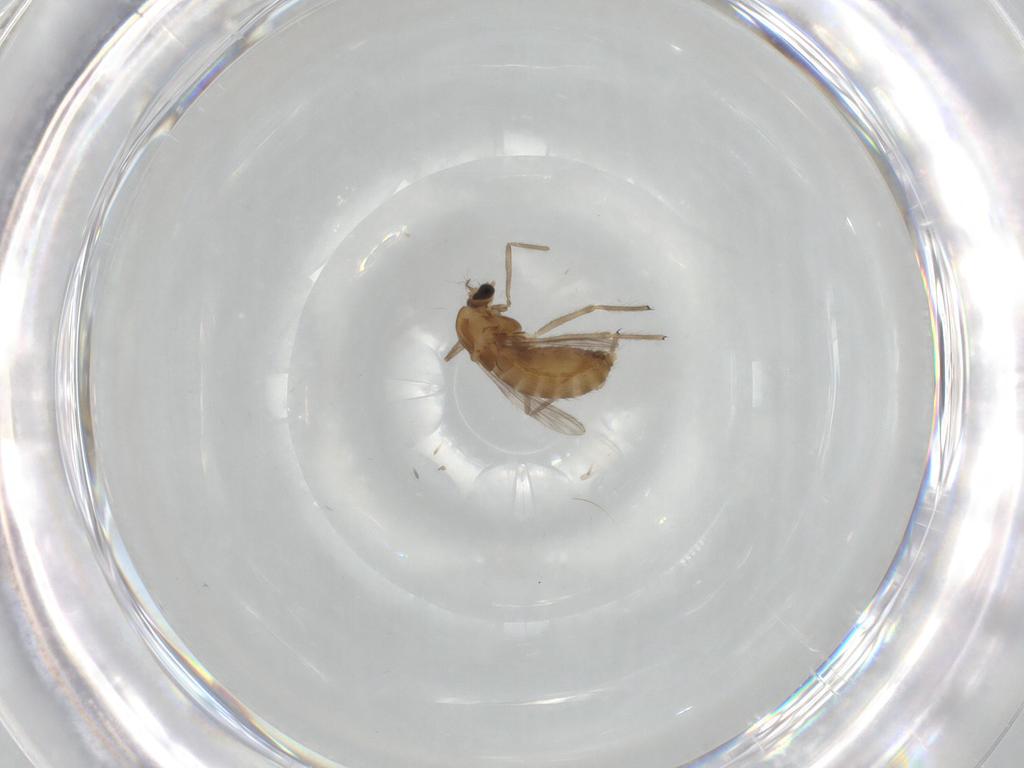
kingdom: Animalia
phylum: Arthropoda
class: Insecta
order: Diptera
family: Chironomidae
